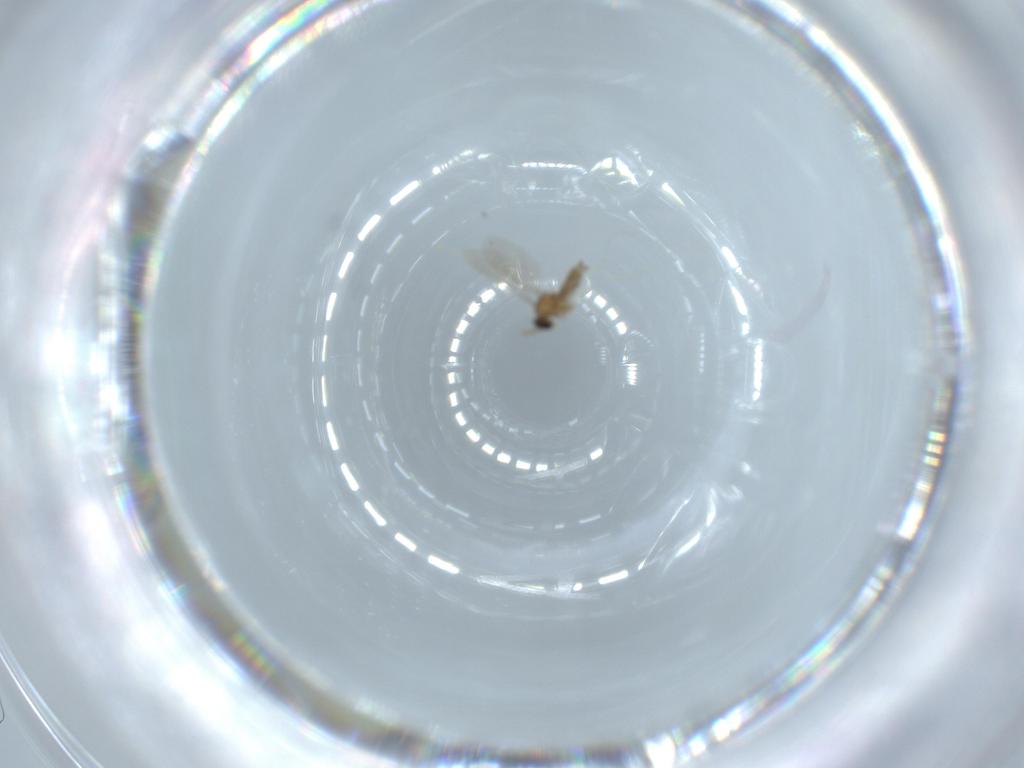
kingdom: Animalia
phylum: Arthropoda
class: Insecta
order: Diptera
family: Cecidomyiidae
